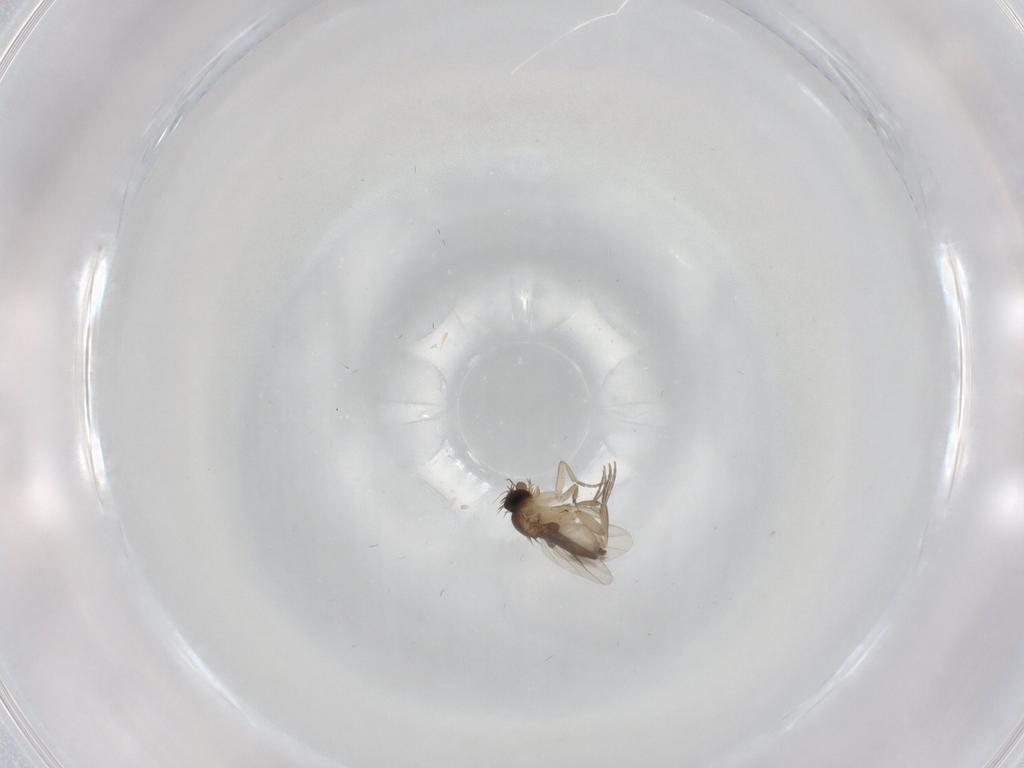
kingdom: Animalia
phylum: Arthropoda
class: Insecta
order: Diptera
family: Phoridae
